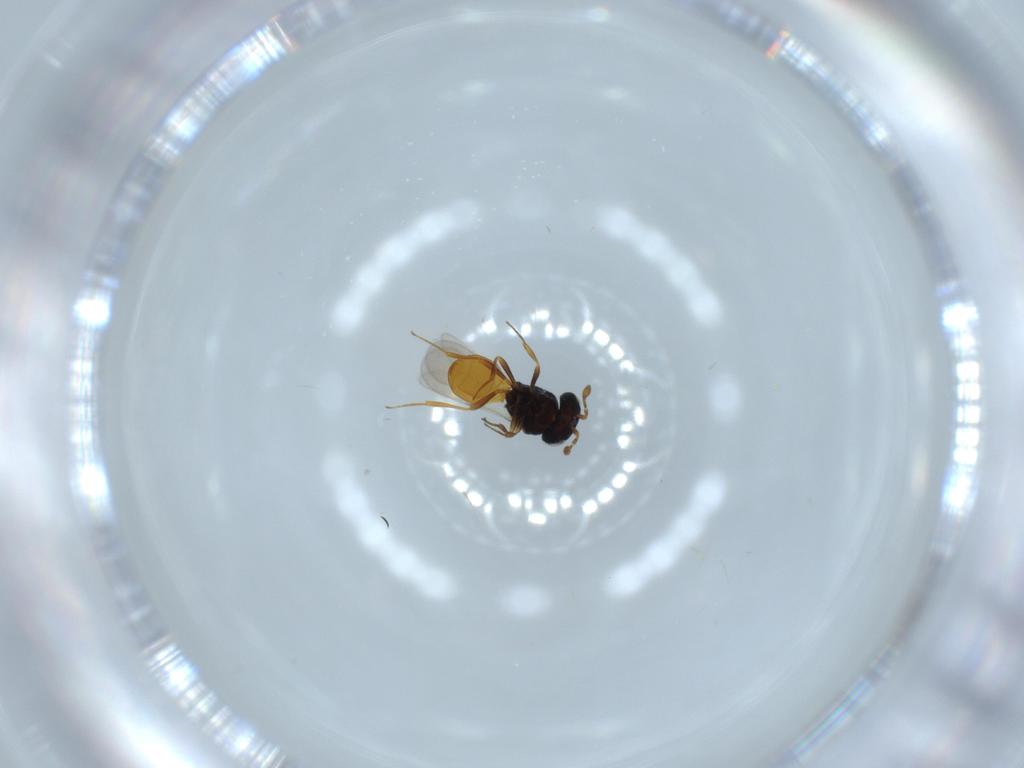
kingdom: Animalia
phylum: Arthropoda
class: Insecta
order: Hymenoptera
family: Scelionidae
